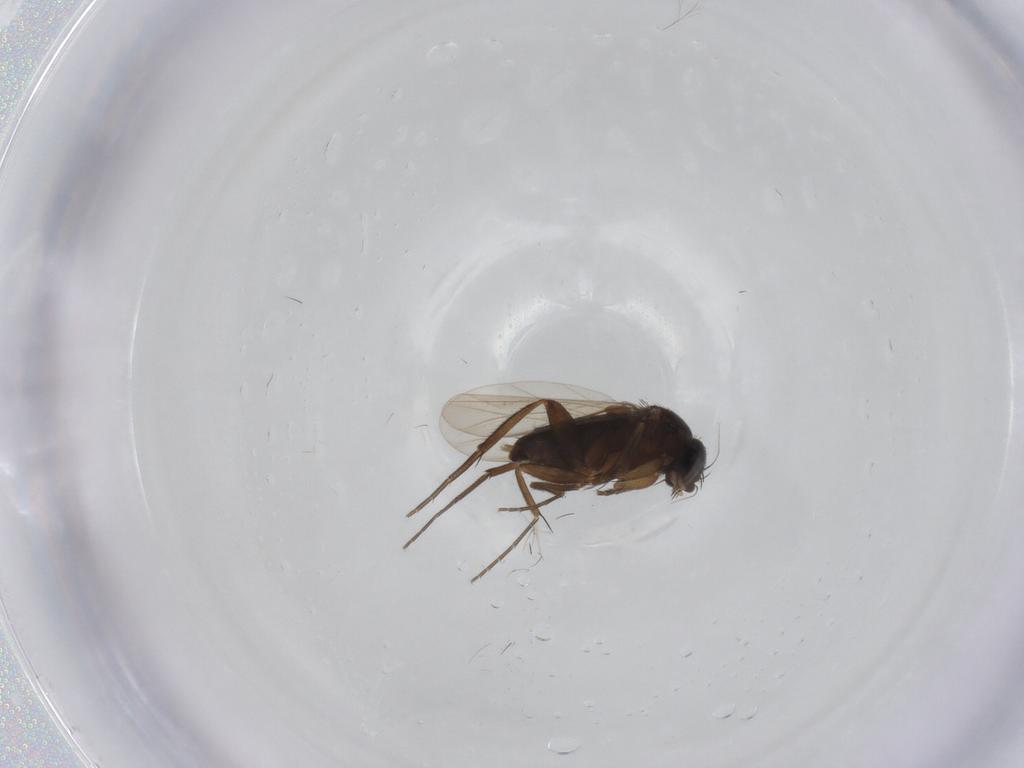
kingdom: Animalia
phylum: Arthropoda
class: Insecta
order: Diptera
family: Phoridae
